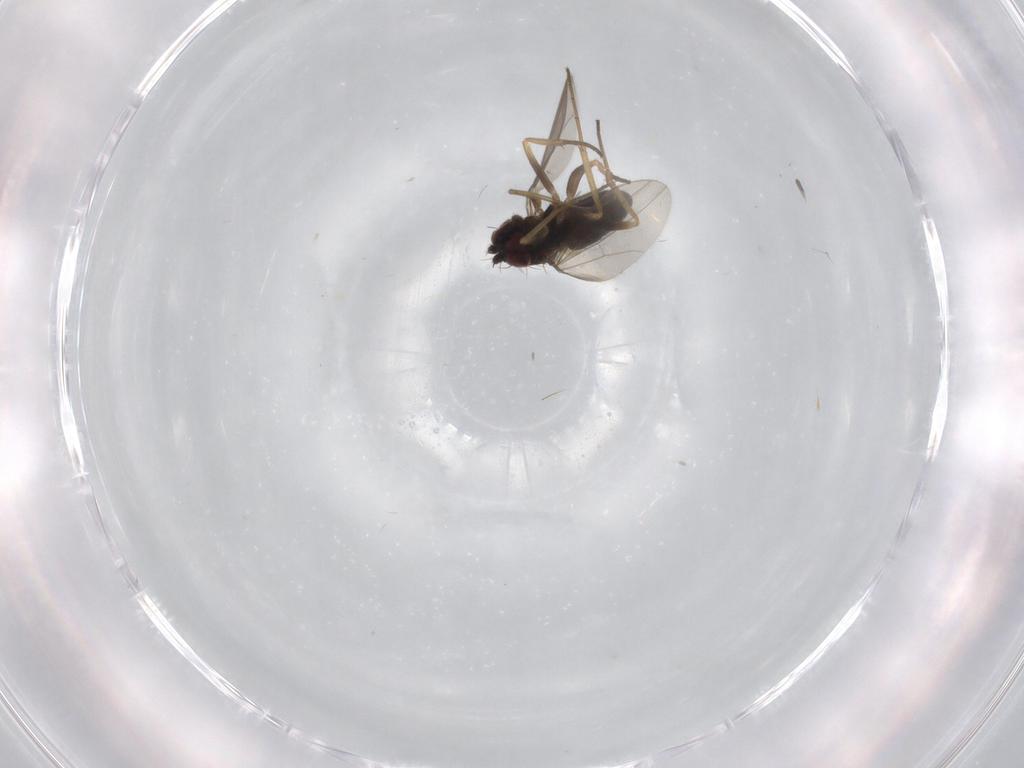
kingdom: Animalia
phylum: Arthropoda
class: Insecta
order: Diptera
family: Dolichopodidae
